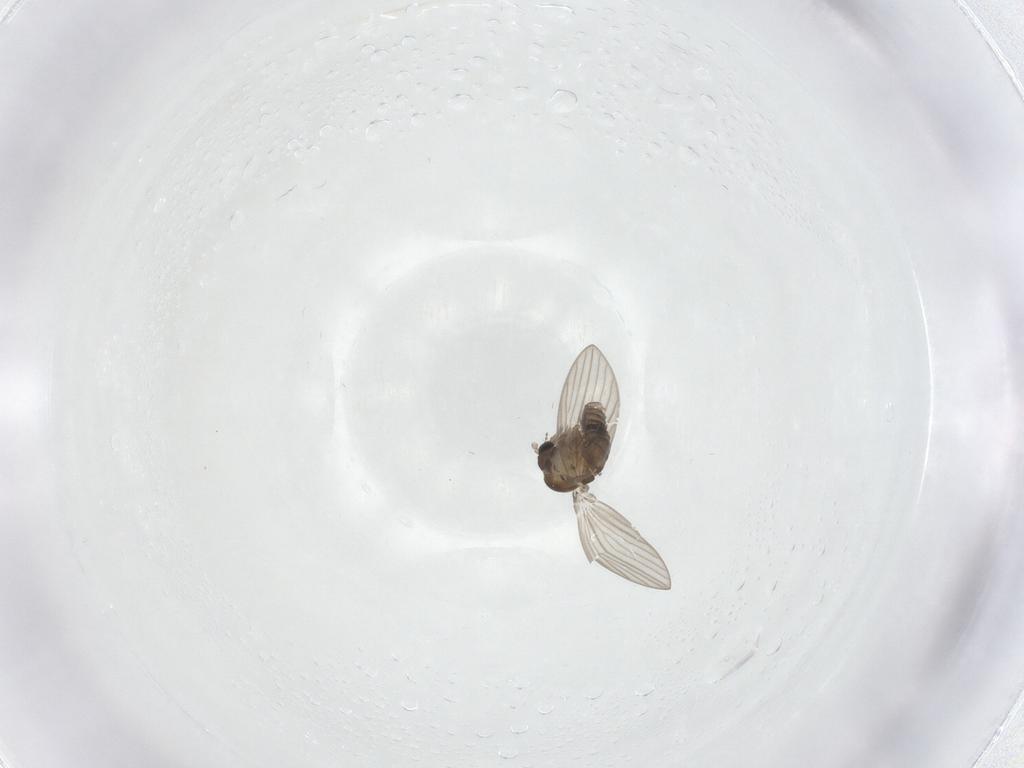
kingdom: Animalia
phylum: Arthropoda
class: Insecta
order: Diptera
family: Psychodidae
